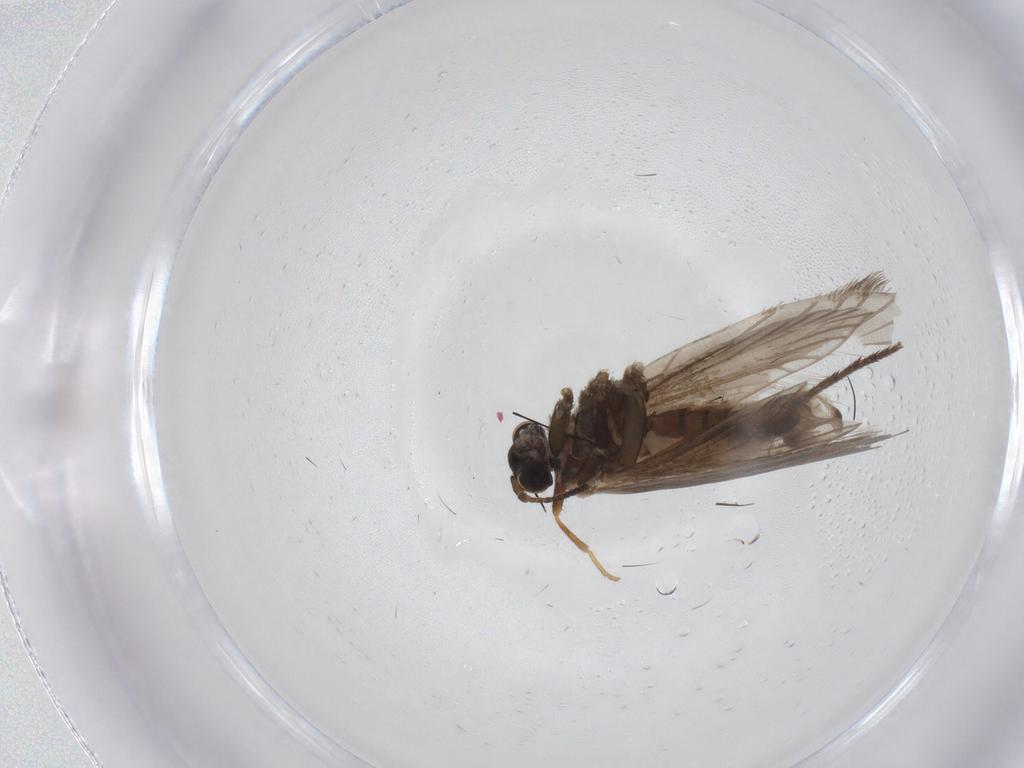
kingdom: Animalia
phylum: Arthropoda
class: Insecta
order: Lepidoptera
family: Micropterigidae
